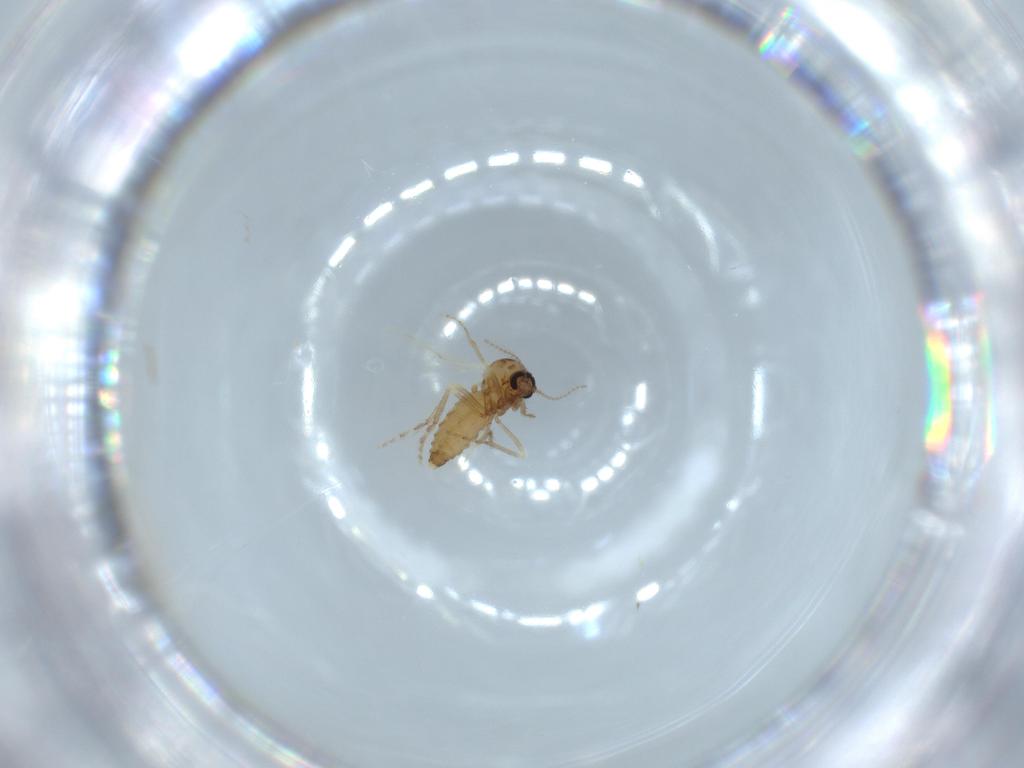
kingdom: Animalia
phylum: Arthropoda
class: Insecta
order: Diptera
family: Ceratopogonidae
